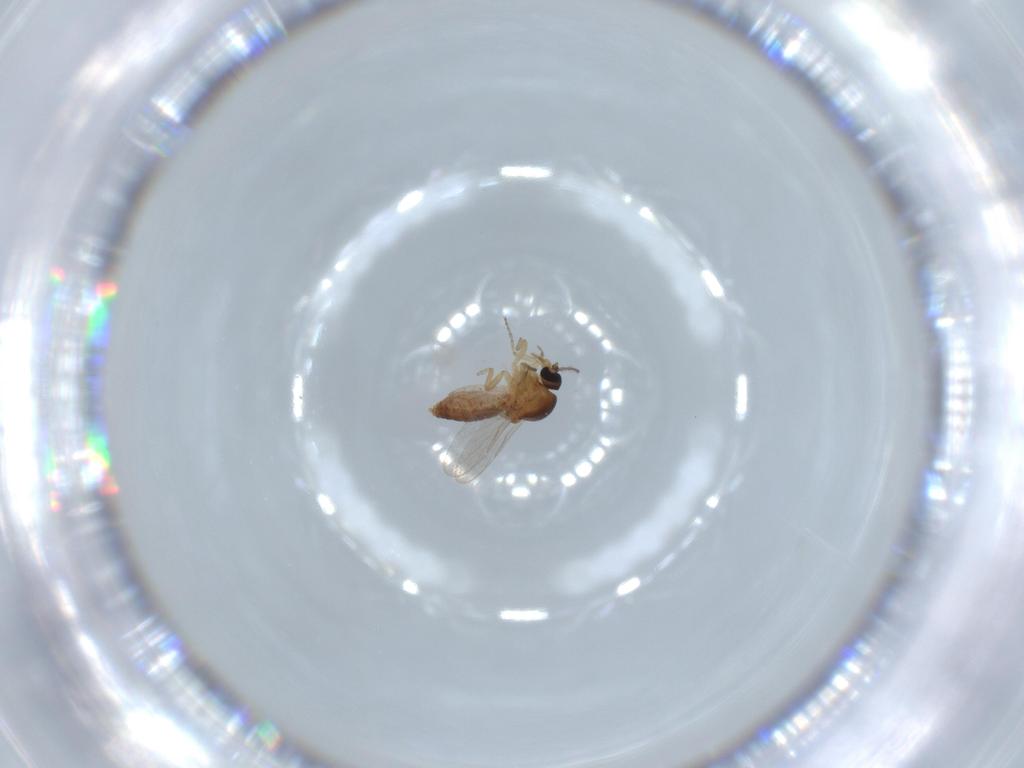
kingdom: Animalia
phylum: Arthropoda
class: Insecta
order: Diptera
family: Ceratopogonidae
